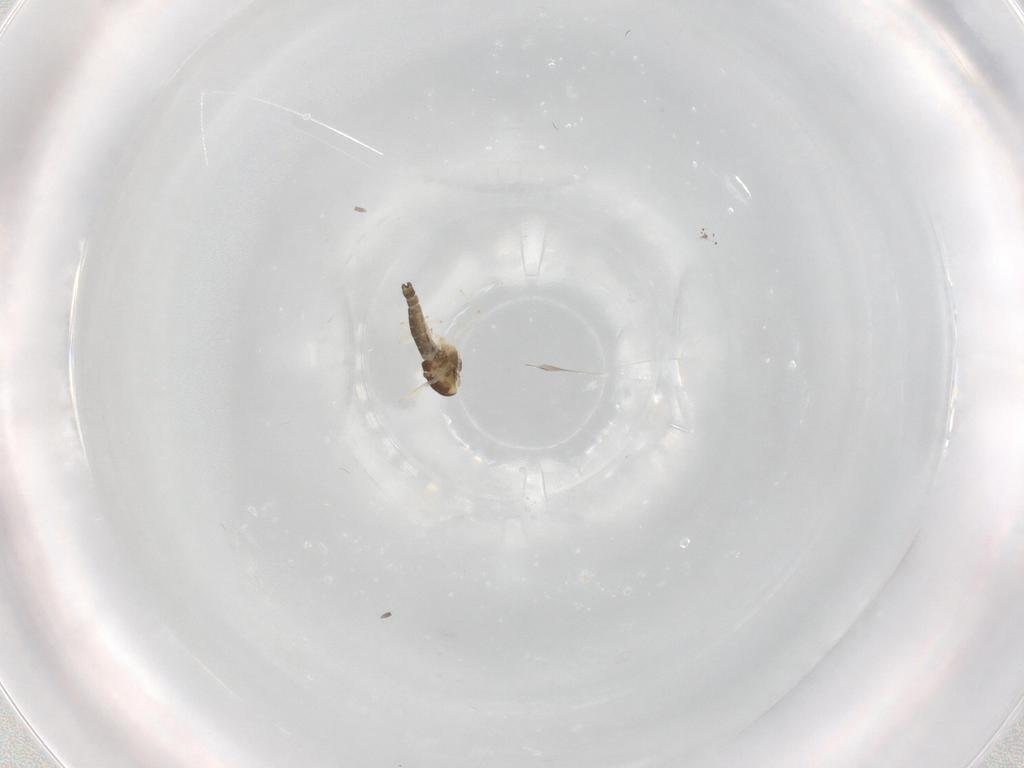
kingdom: Animalia
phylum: Arthropoda
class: Insecta
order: Diptera
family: Chironomidae
